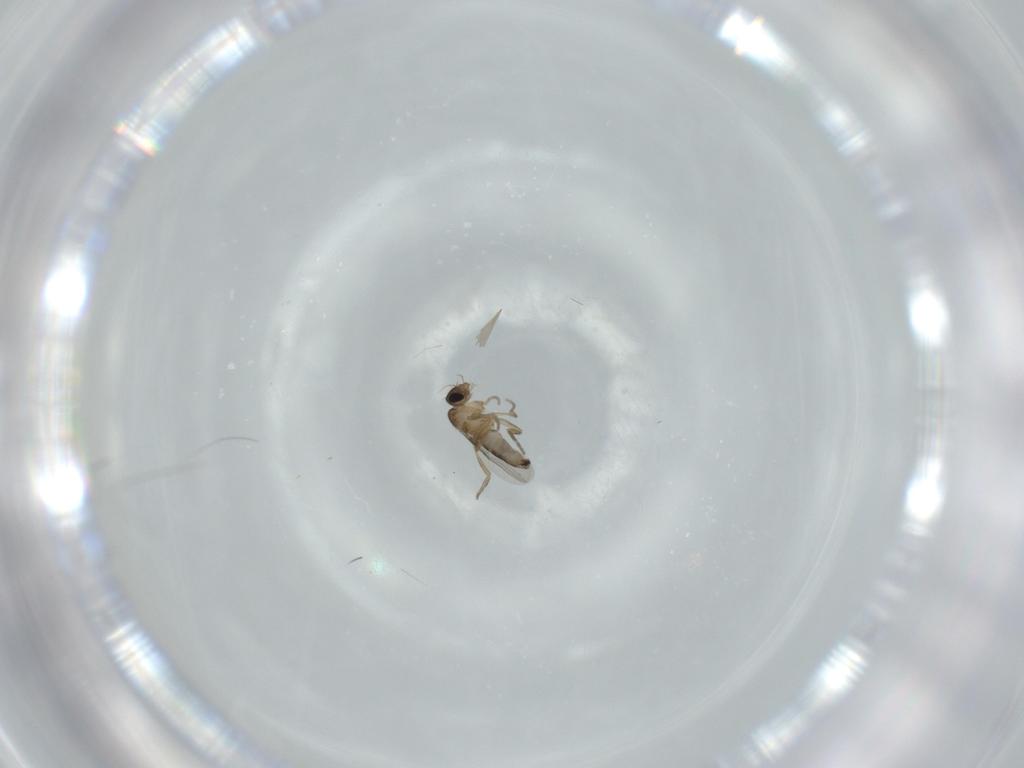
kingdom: Animalia
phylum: Arthropoda
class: Insecta
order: Diptera
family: Phoridae
